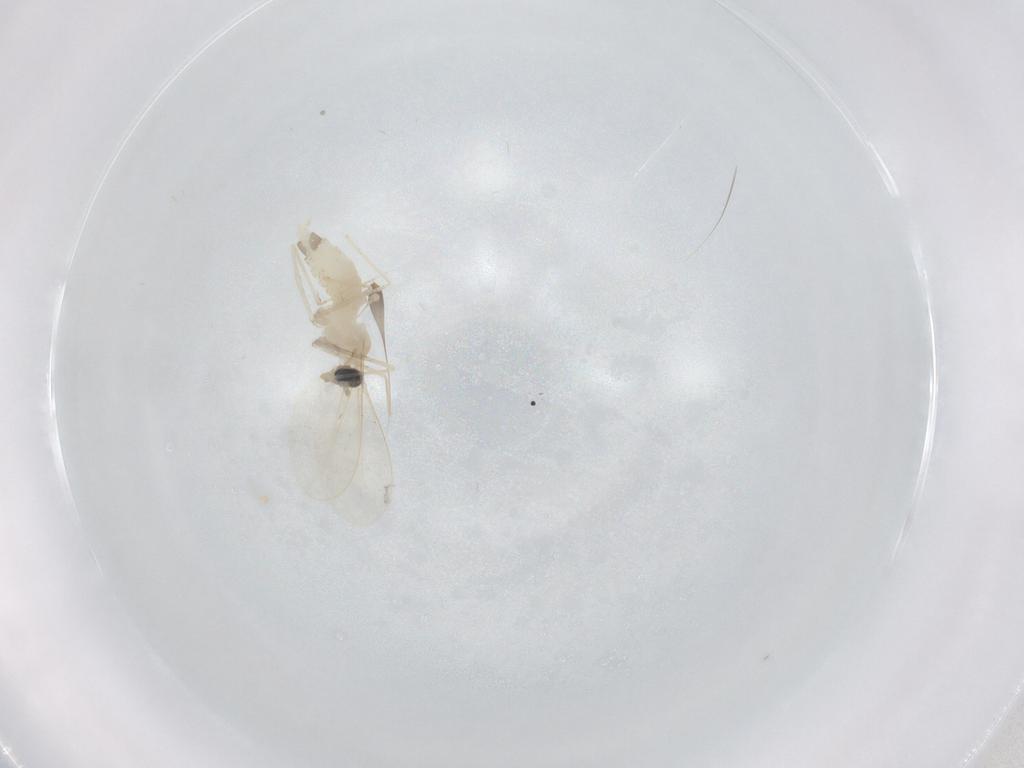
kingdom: Animalia
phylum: Arthropoda
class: Insecta
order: Diptera
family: Cecidomyiidae
